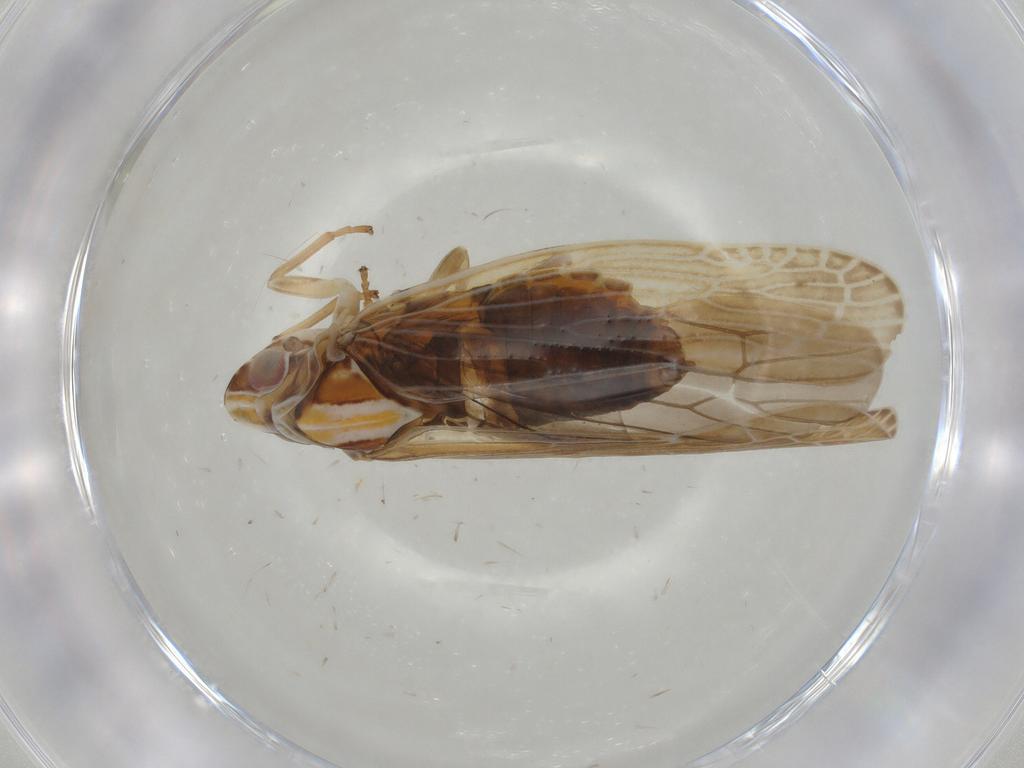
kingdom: Animalia
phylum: Arthropoda
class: Insecta
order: Hemiptera
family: Achilidae
